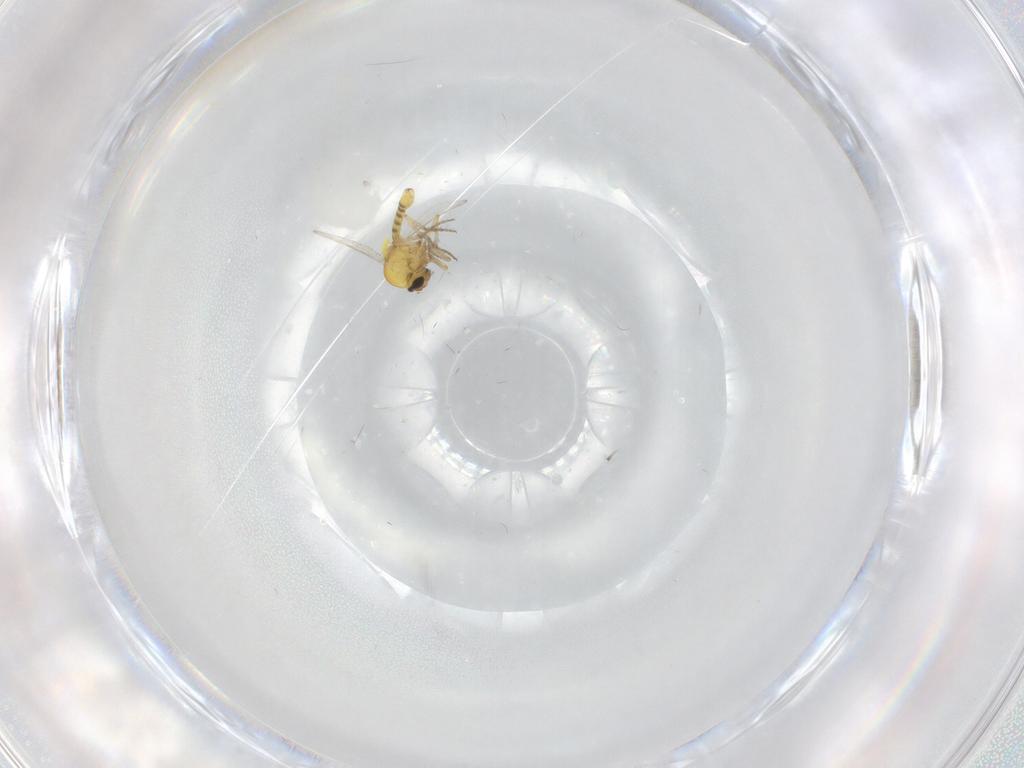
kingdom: Animalia
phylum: Arthropoda
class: Insecta
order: Diptera
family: Ceratopogonidae
